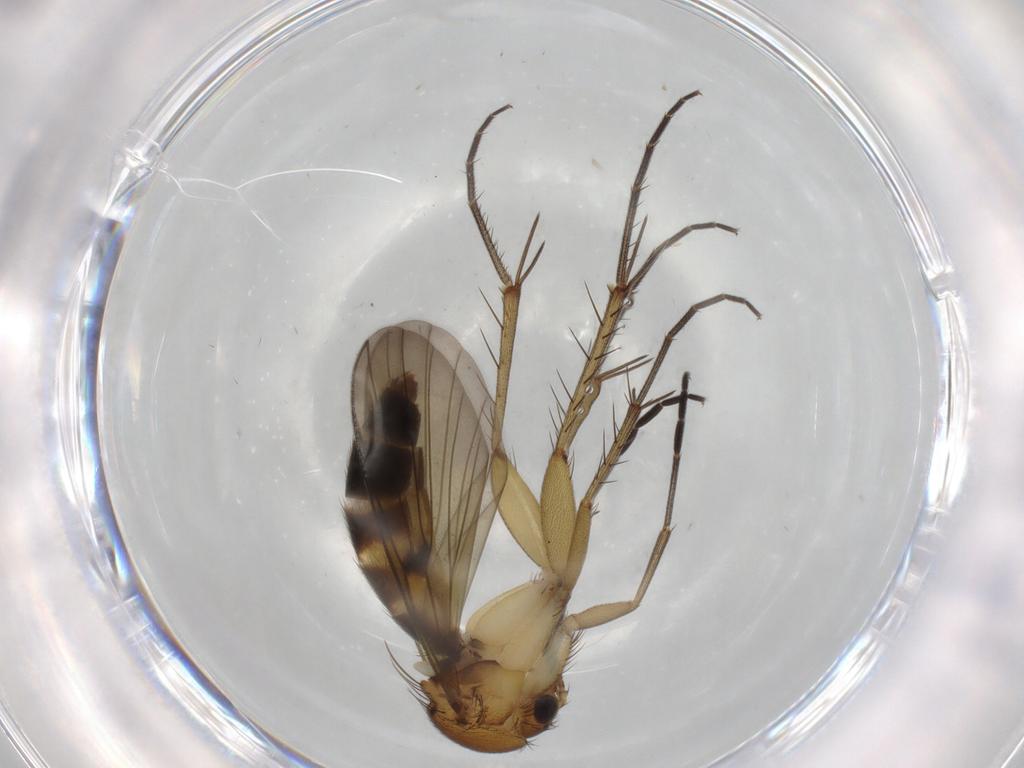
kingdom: Animalia
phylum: Arthropoda
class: Insecta
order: Diptera
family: Mycetophilidae
